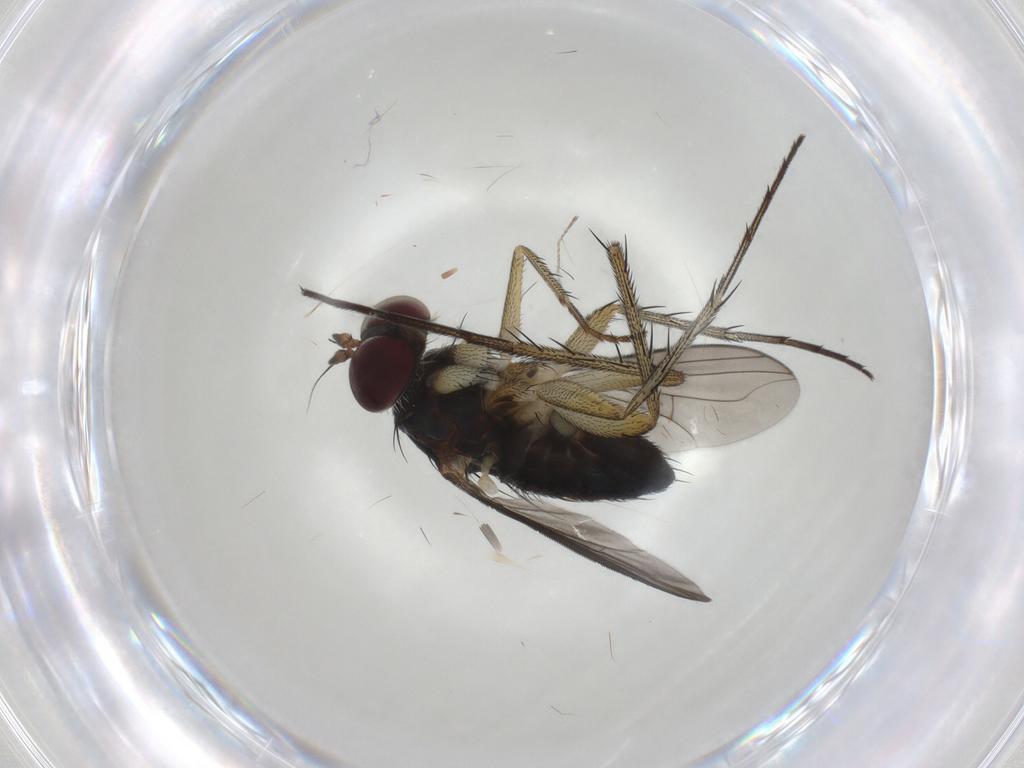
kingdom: Animalia
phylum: Arthropoda
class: Insecta
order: Diptera
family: Dolichopodidae
